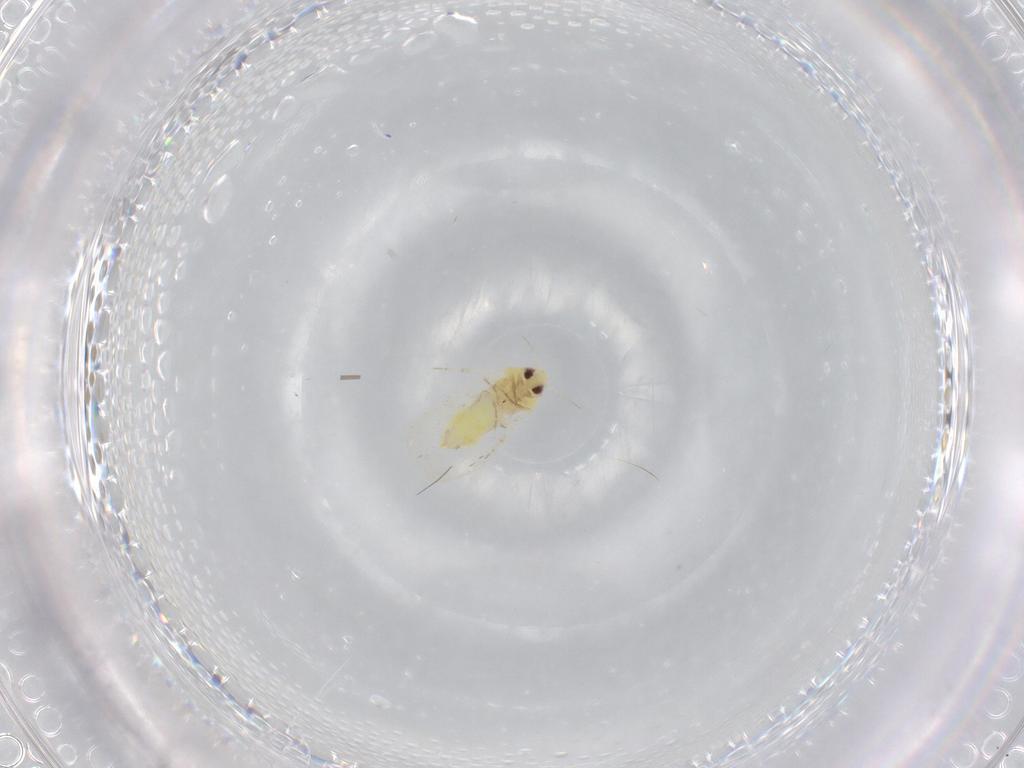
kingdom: Animalia
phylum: Arthropoda
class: Insecta
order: Hemiptera
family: Aleyrodidae
